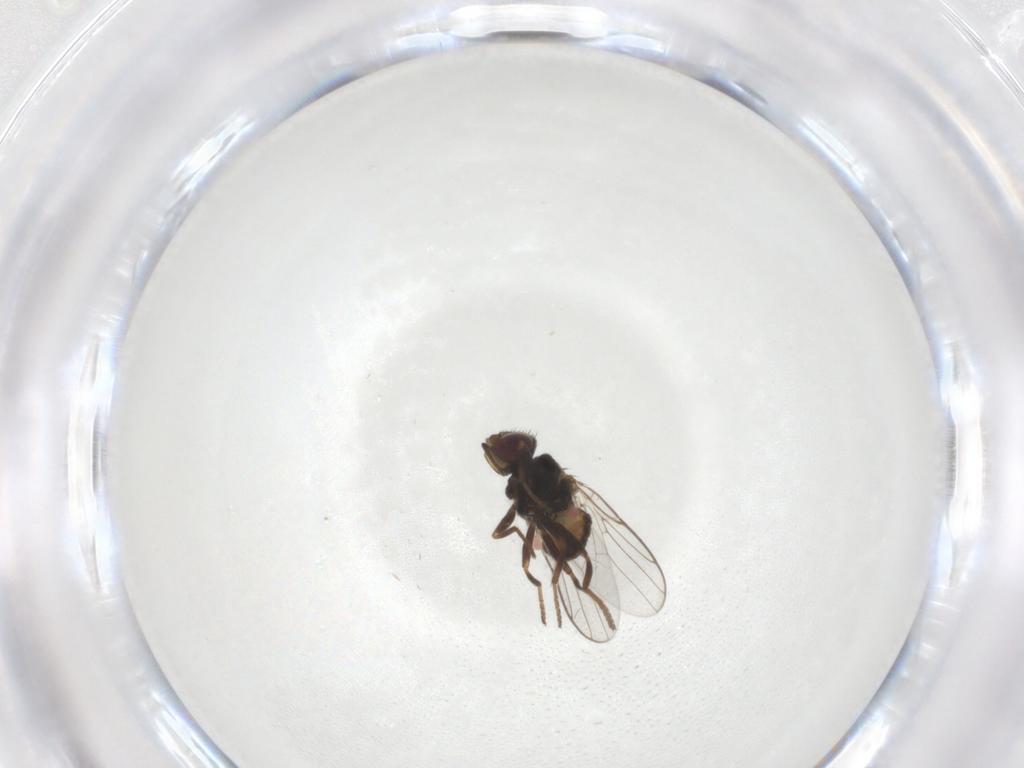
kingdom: Animalia
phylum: Arthropoda
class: Insecta
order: Diptera
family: Chloropidae
